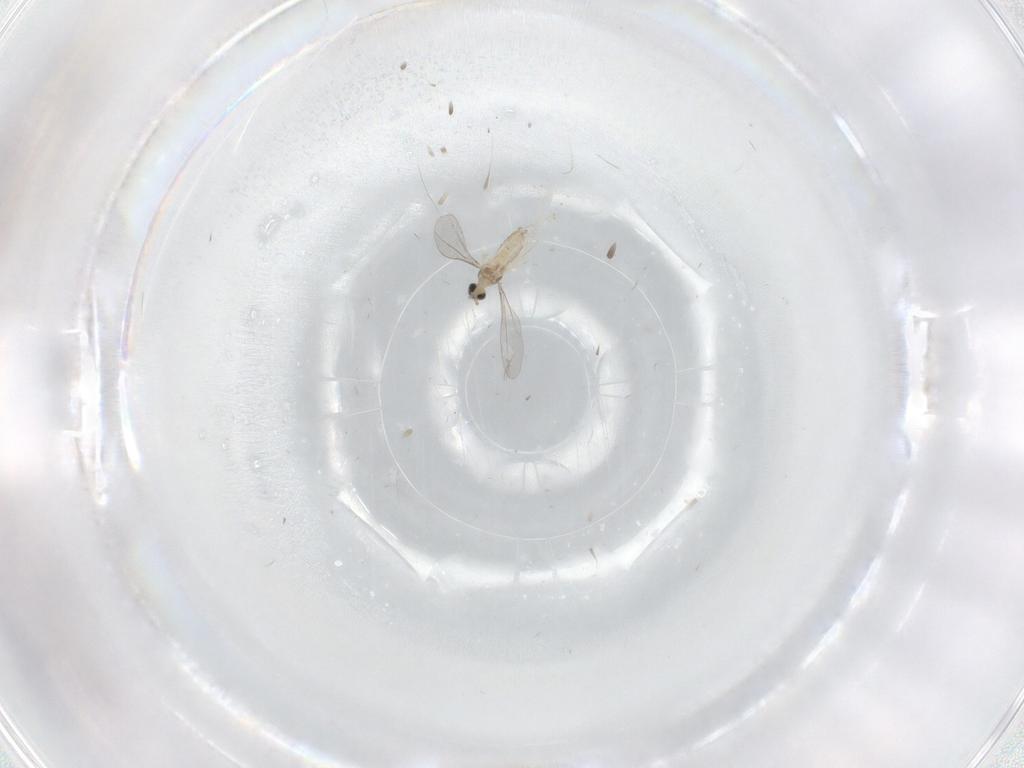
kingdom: Animalia
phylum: Arthropoda
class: Insecta
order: Diptera
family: Cecidomyiidae
